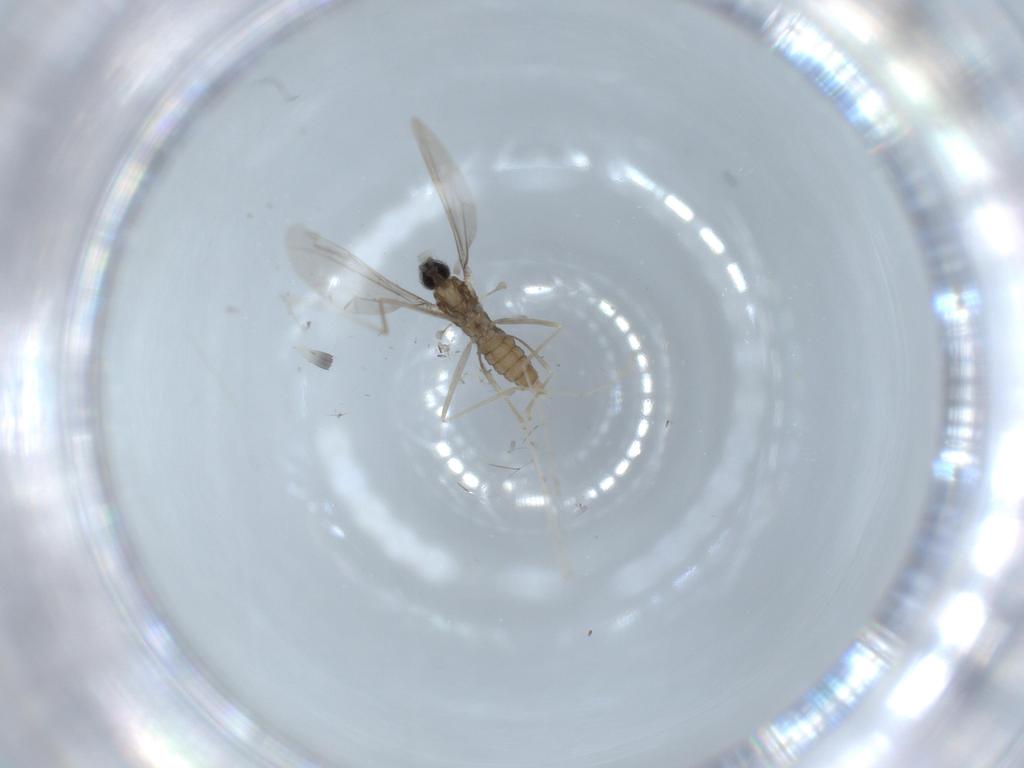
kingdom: Animalia
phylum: Arthropoda
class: Insecta
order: Diptera
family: Cecidomyiidae
